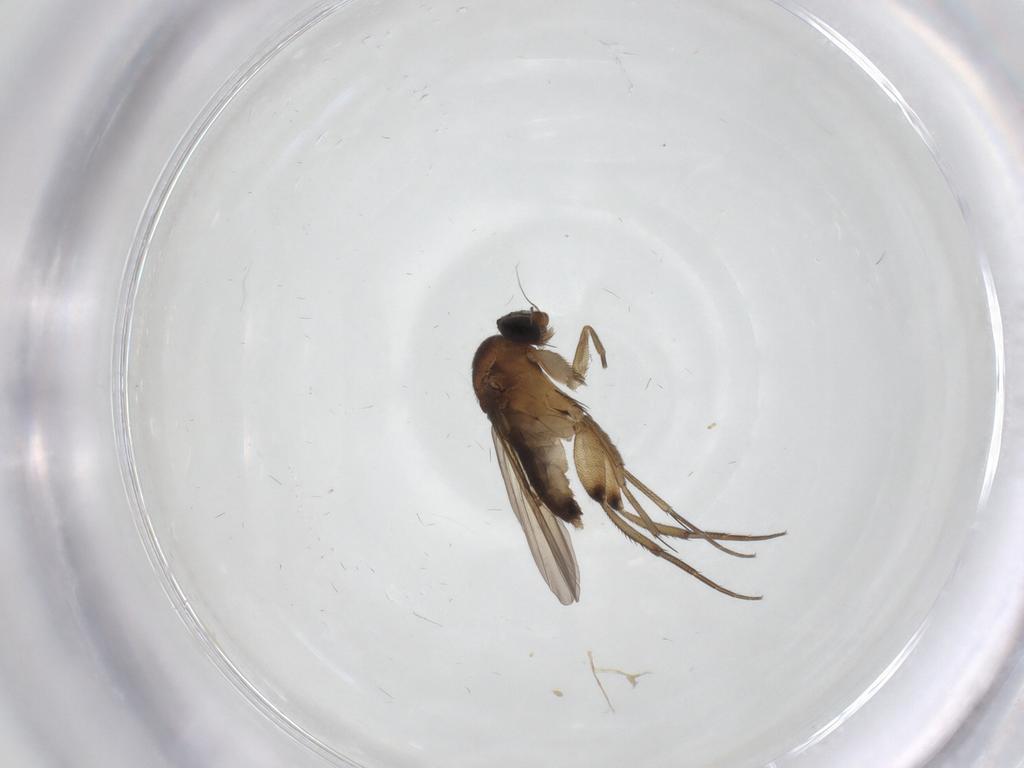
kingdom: Animalia
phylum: Arthropoda
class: Insecta
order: Diptera
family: Phoridae
